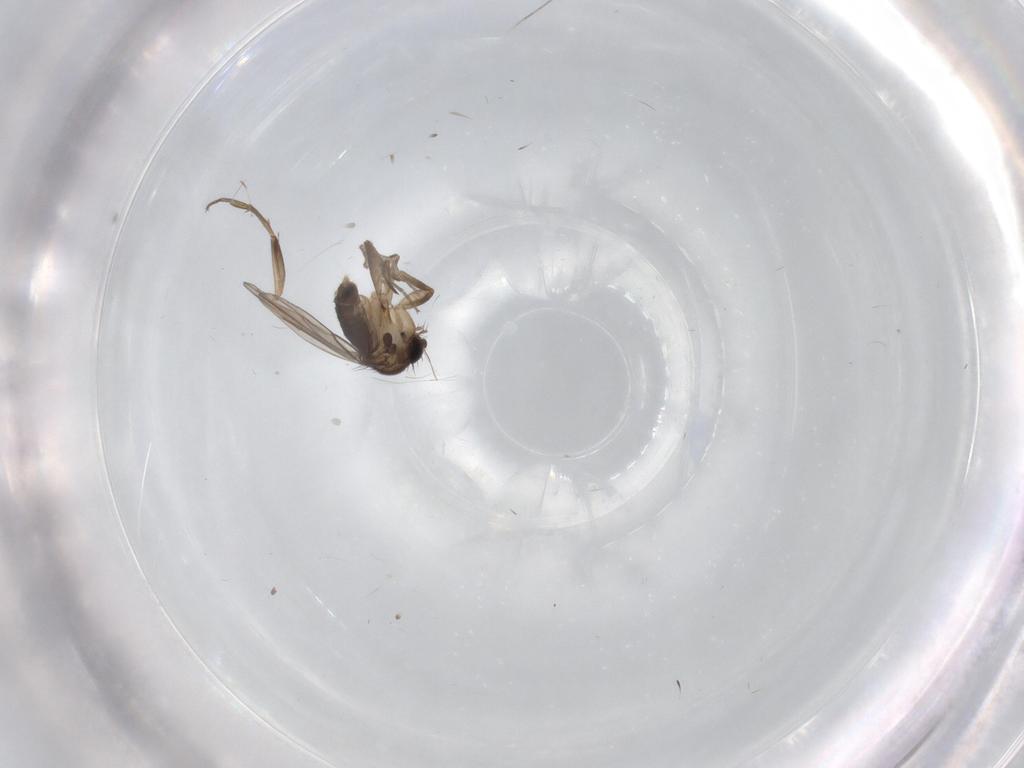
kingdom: Animalia
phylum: Arthropoda
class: Insecta
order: Diptera
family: Phoridae
